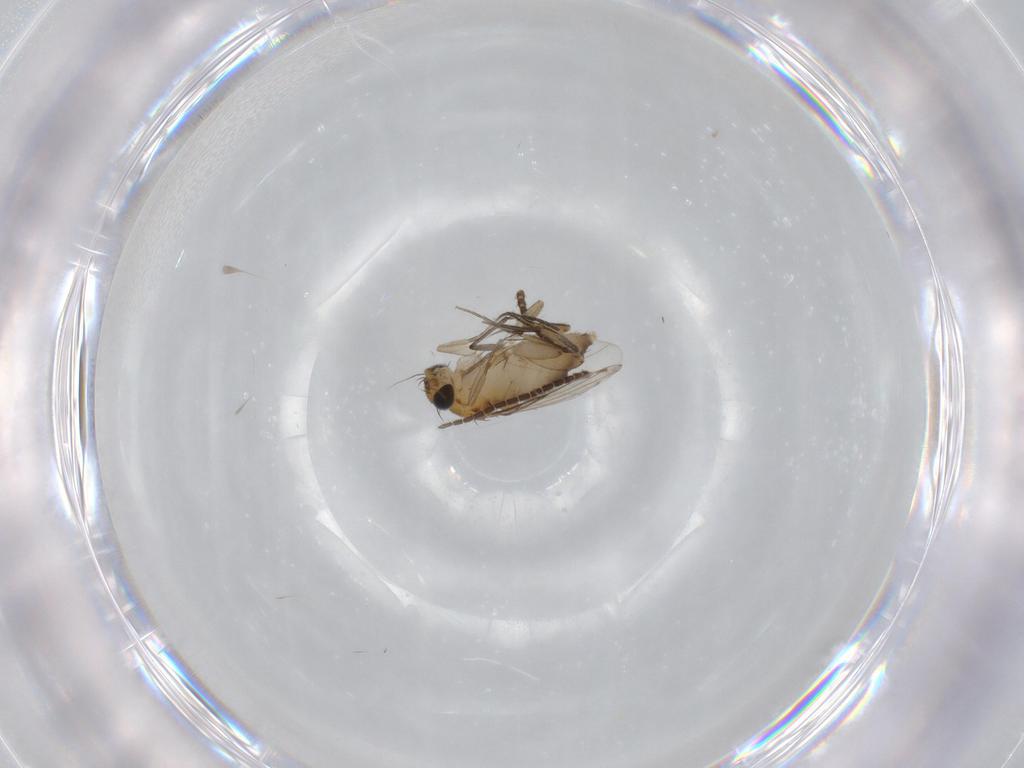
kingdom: Animalia
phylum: Arthropoda
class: Insecta
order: Diptera
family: Phoridae
